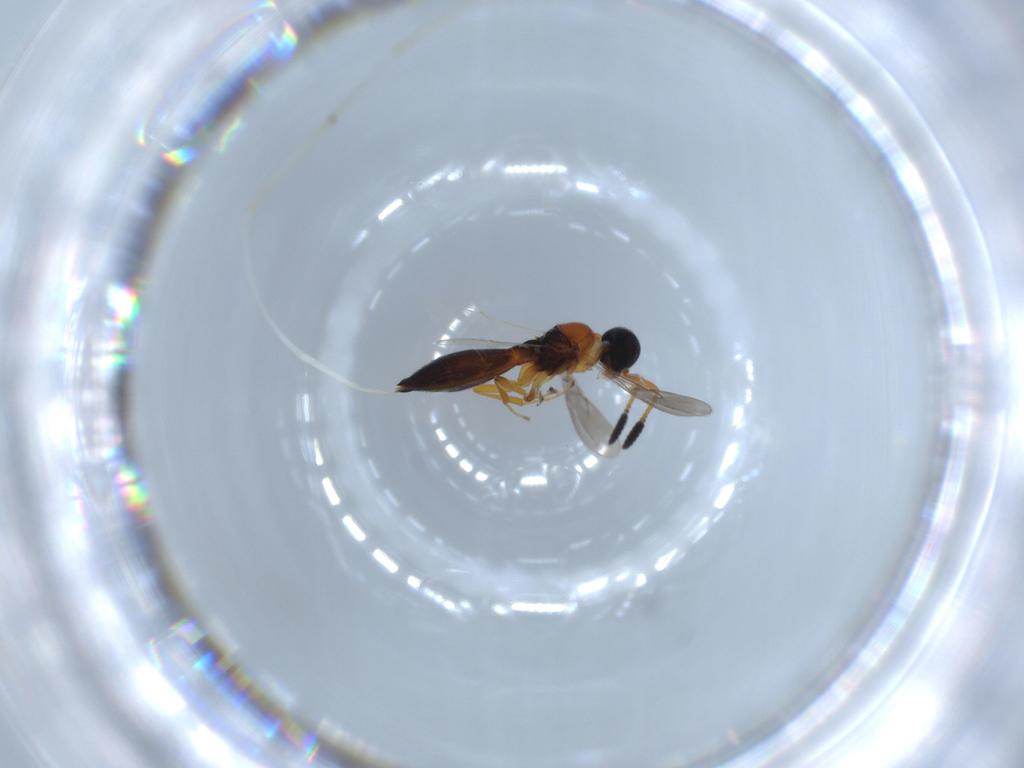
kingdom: Animalia
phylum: Arthropoda
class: Insecta
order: Hymenoptera
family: Scelionidae
